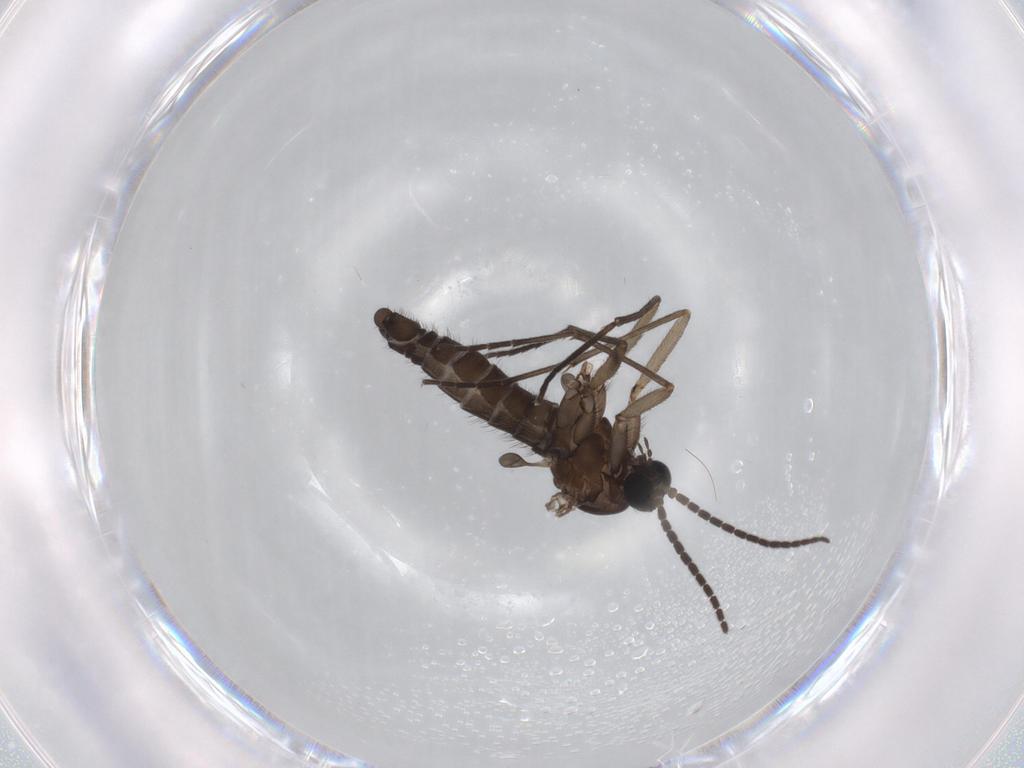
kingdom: Animalia
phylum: Arthropoda
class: Insecta
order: Diptera
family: Sciaridae
